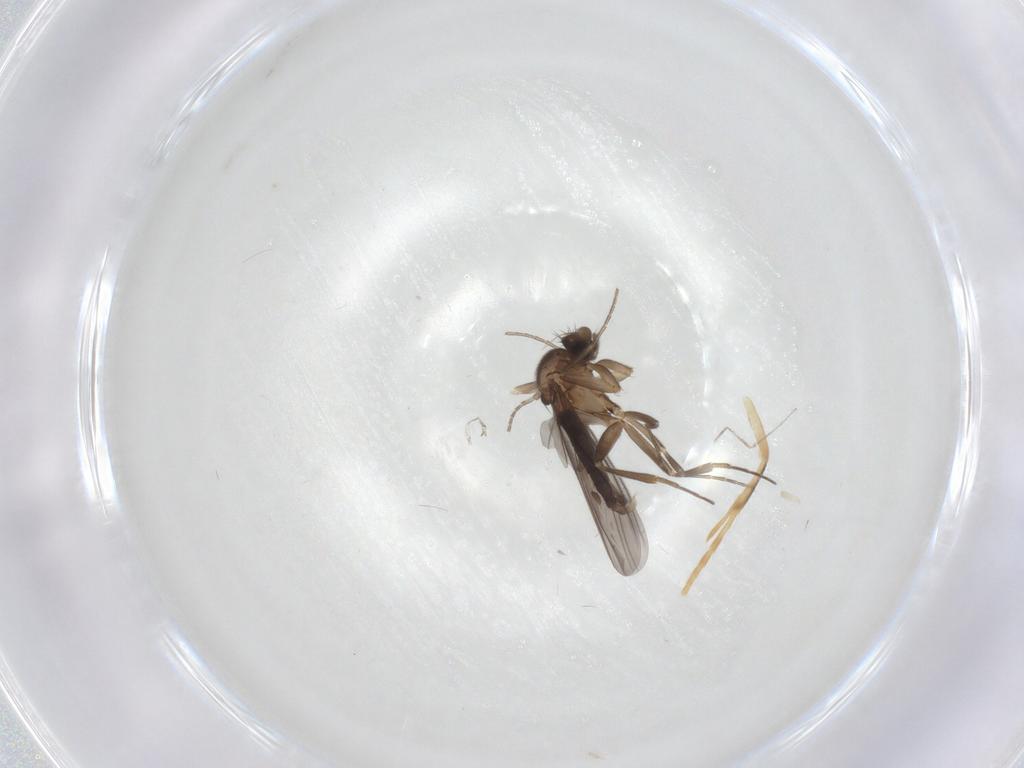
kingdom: Animalia
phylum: Arthropoda
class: Insecta
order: Diptera
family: Cecidomyiidae
